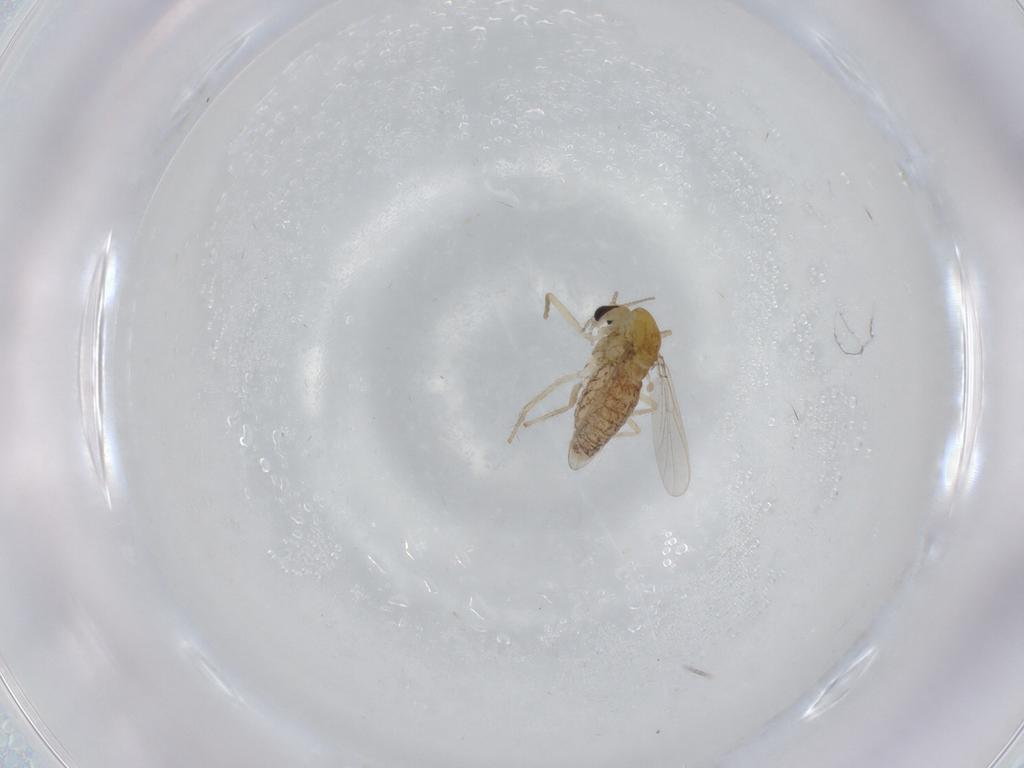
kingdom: Animalia
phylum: Arthropoda
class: Insecta
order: Diptera
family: Chironomidae
